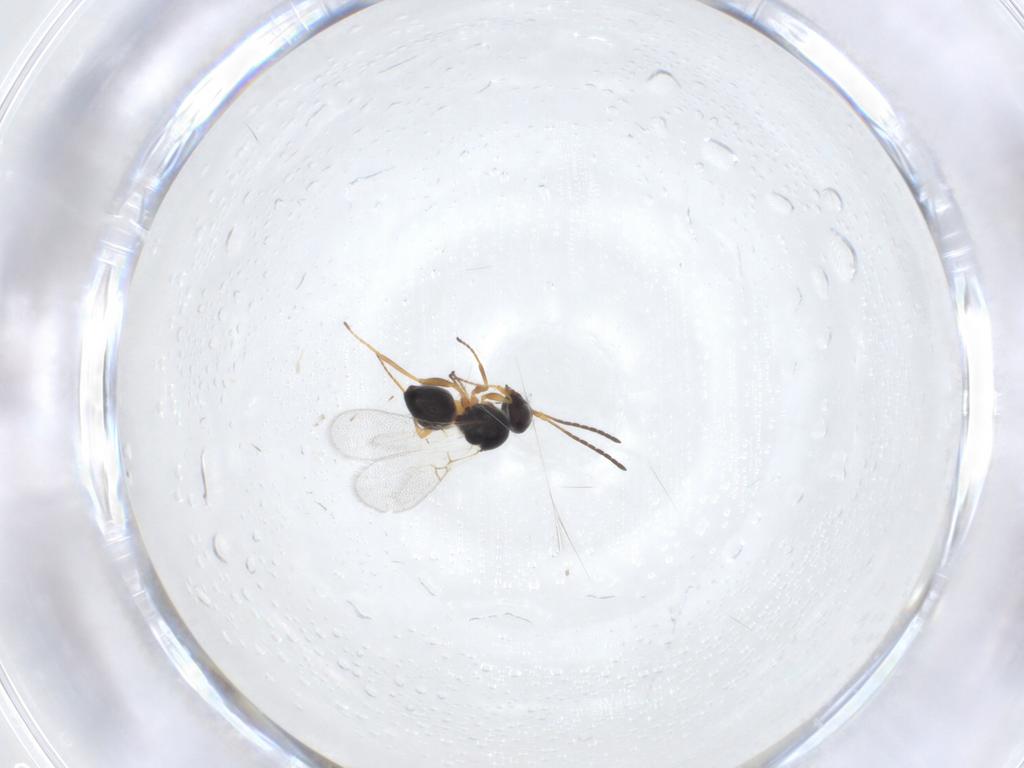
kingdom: Animalia
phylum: Arthropoda
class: Insecta
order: Hymenoptera
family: Figitidae
